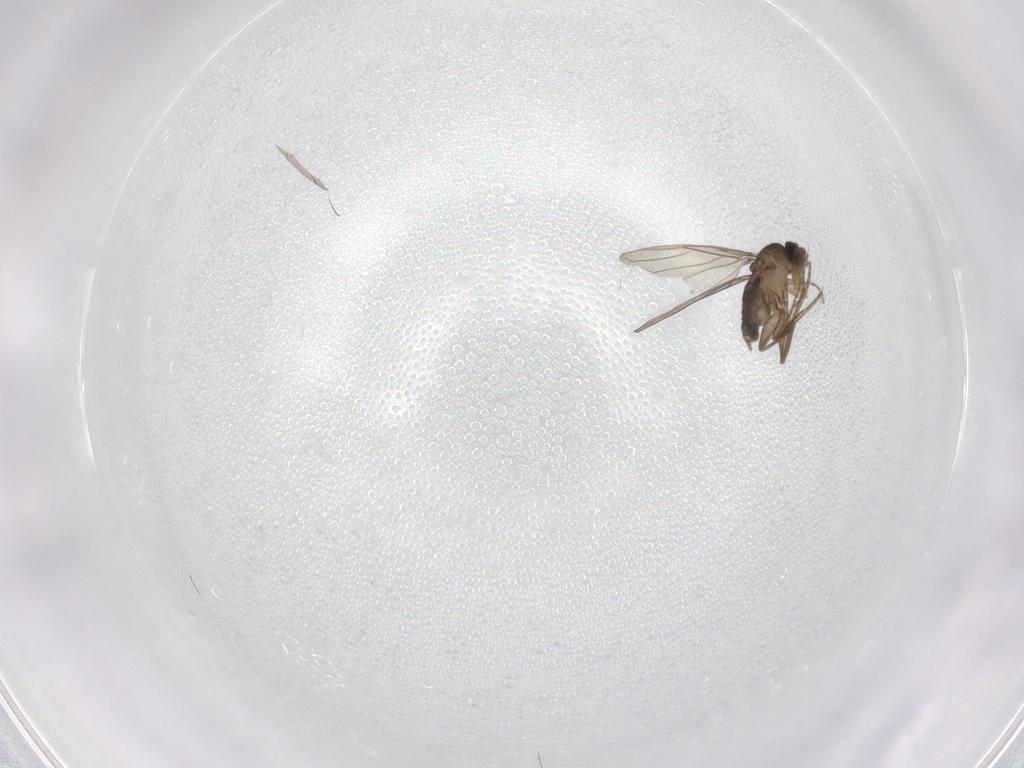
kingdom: Animalia
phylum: Arthropoda
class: Insecta
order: Diptera
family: Phoridae
